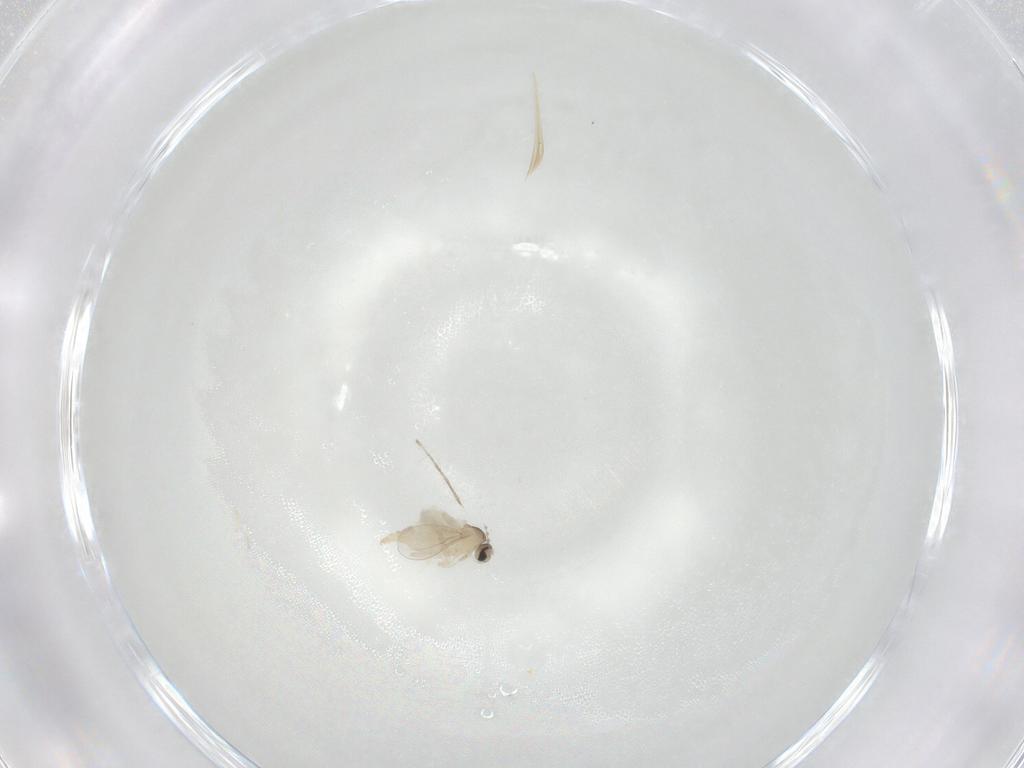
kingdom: Animalia
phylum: Arthropoda
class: Insecta
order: Diptera
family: Cecidomyiidae
